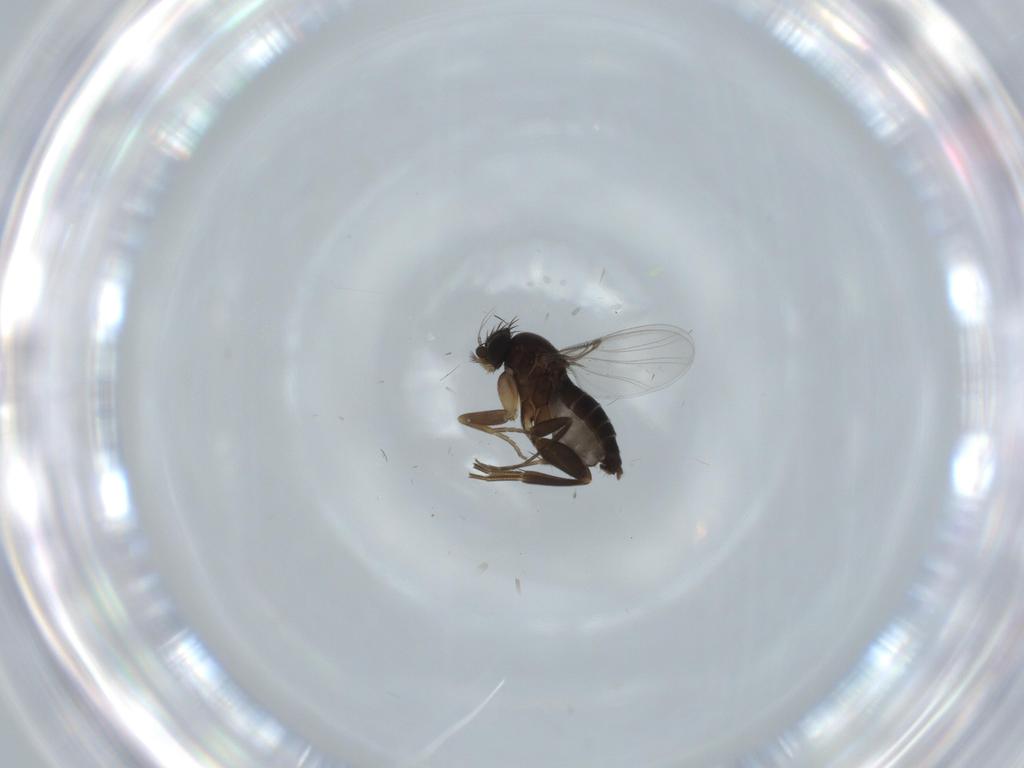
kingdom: Animalia
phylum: Arthropoda
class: Insecta
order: Diptera
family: Phoridae
